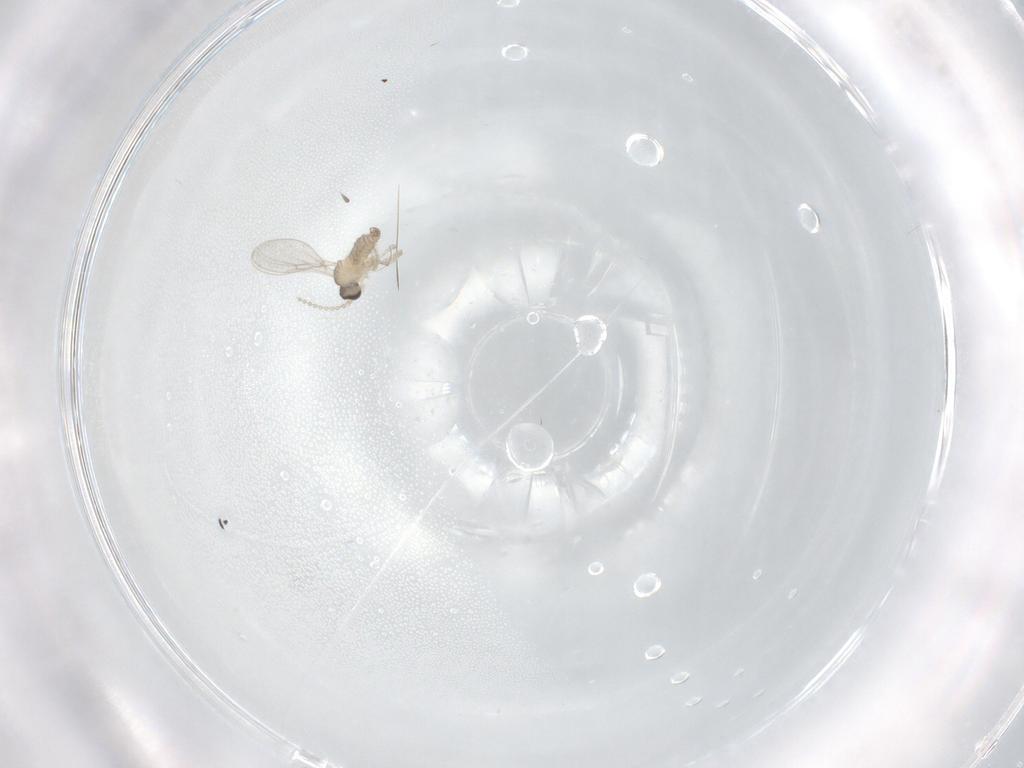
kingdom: Animalia
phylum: Arthropoda
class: Insecta
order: Diptera
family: Cecidomyiidae
